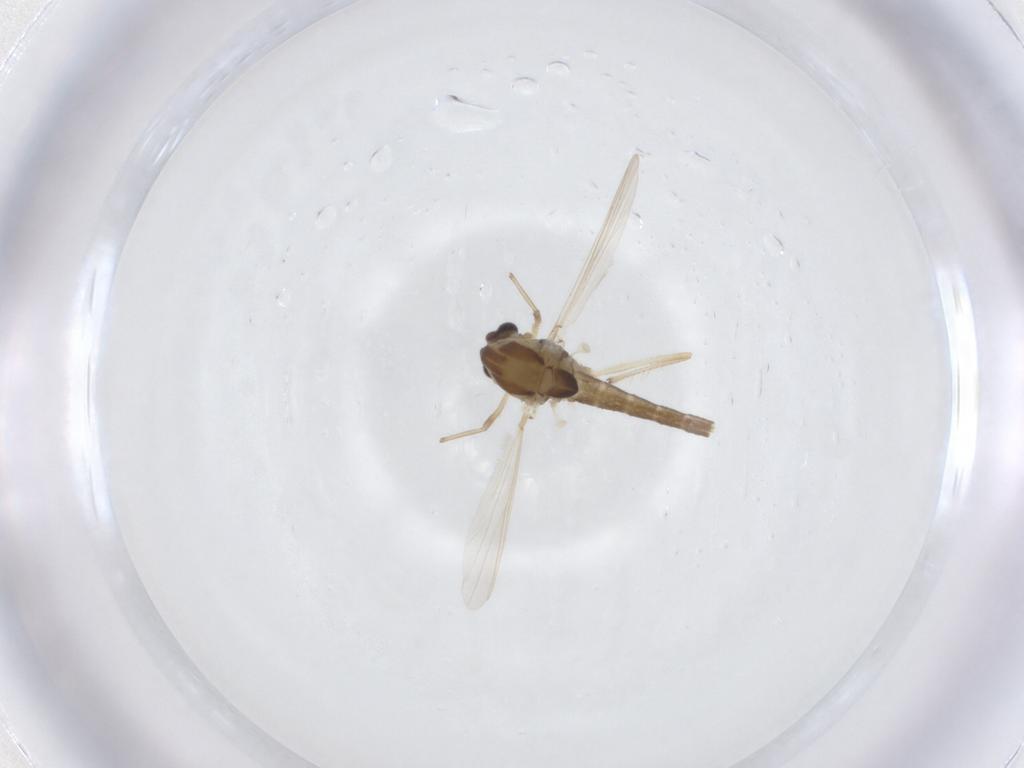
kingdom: Animalia
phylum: Arthropoda
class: Insecta
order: Diptera
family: Chironomidae
